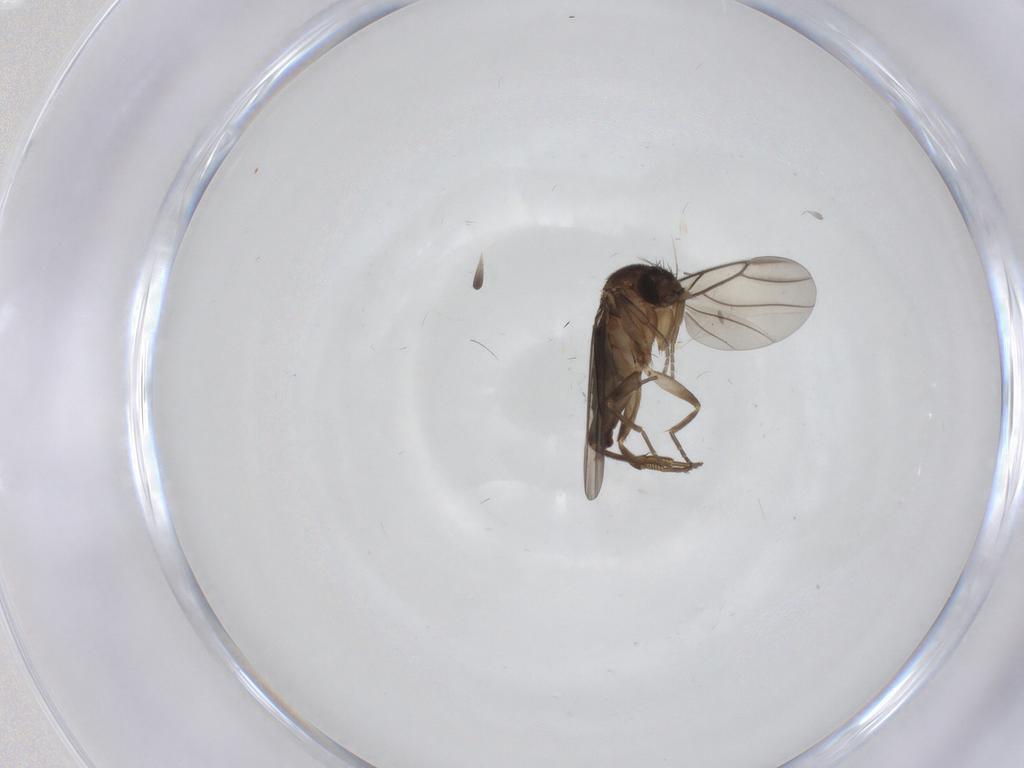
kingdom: Animalia
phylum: Arthropoda
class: Insecta
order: Diptera
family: Phoridae
